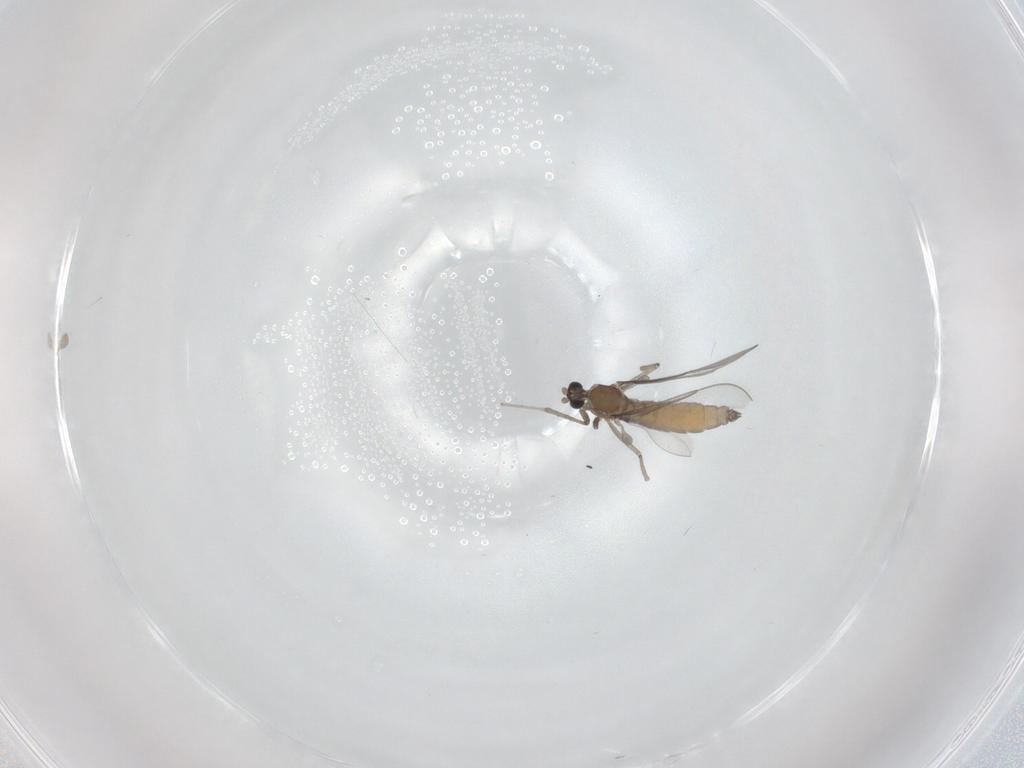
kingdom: Animalia
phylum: Arthropoda
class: Insecta
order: Diptera
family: Cecidomyiidae
